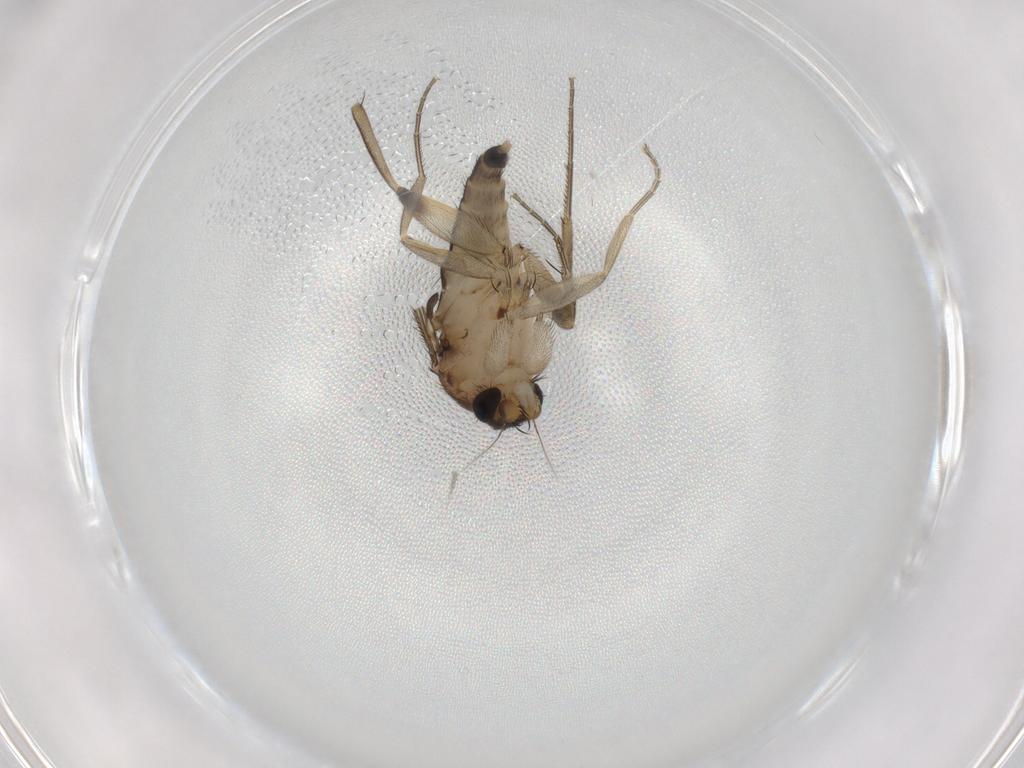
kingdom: Animalia
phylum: Arthropoda
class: Insecta
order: Diptera
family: Phoridae
